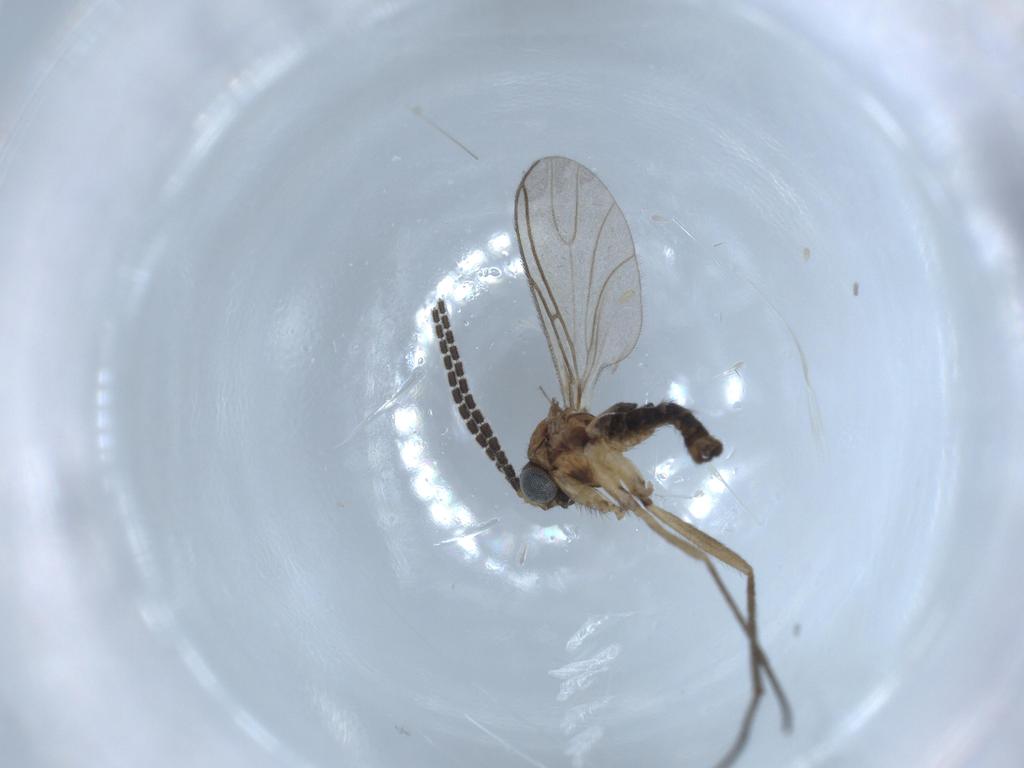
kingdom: Animalia
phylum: Arthropoda
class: Insecta
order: Diptera
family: Sciaridae
